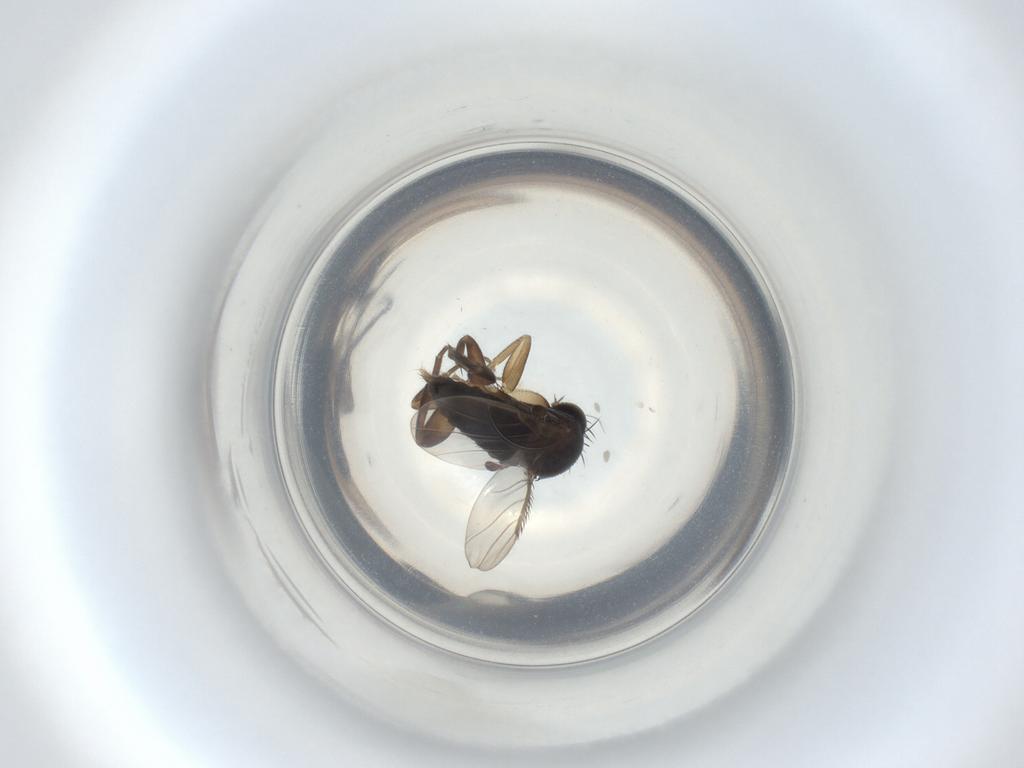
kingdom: Animalia
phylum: Arthropoda
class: Insecta
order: Diptera
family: Phoridae
